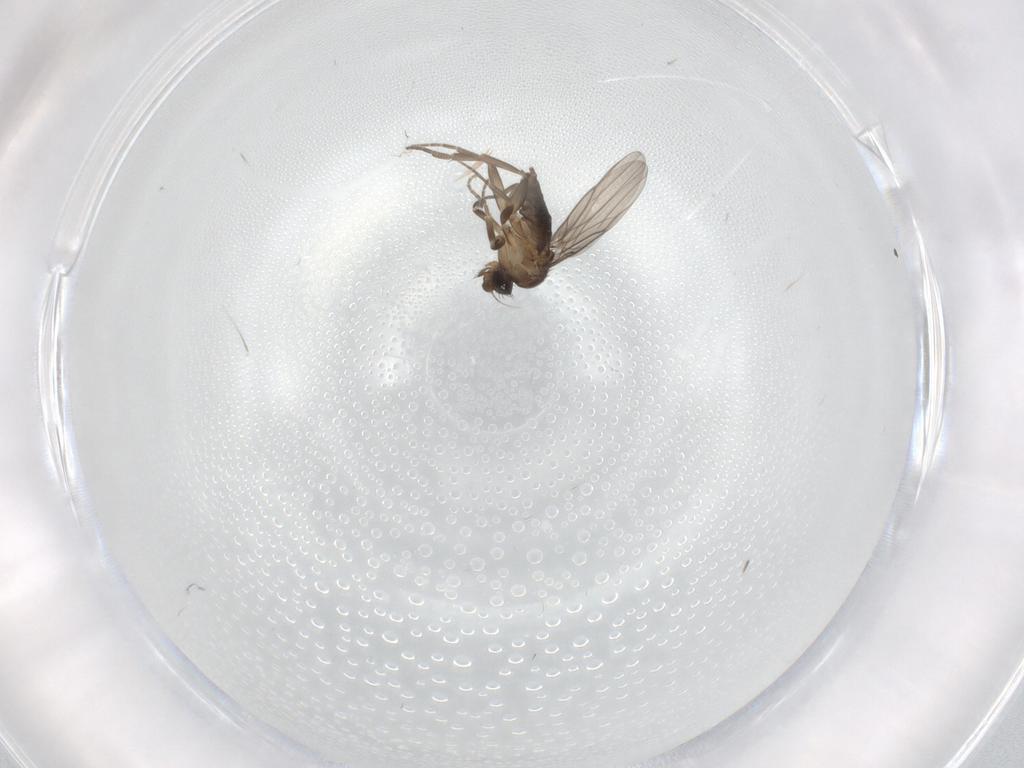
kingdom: Animalia
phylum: Arthropoda
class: Insecta
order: Diptera
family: Sciaridae
